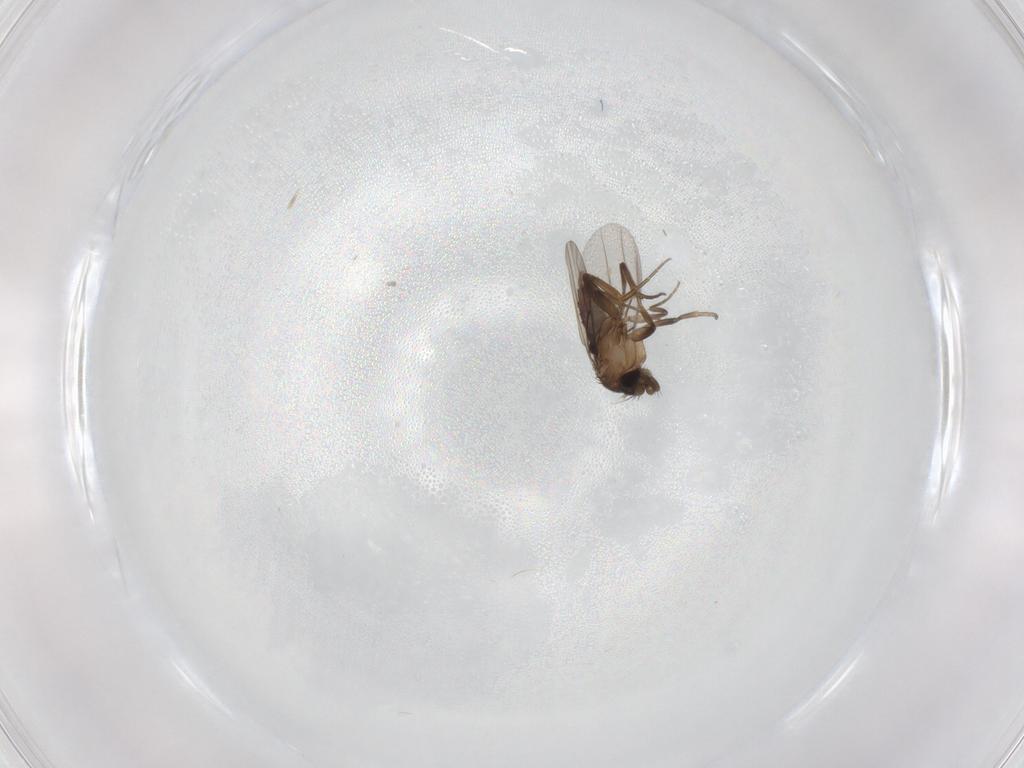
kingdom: Animalia
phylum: Arthropoda
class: Insecta
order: Diptera
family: Phoridae
